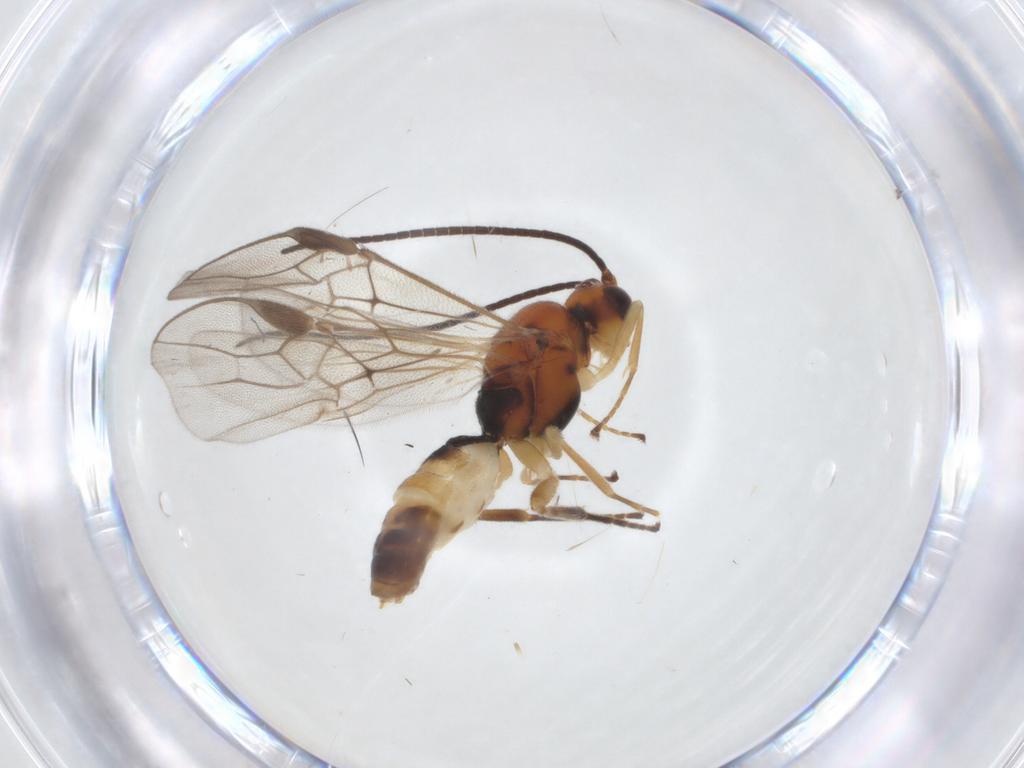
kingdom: Animalia
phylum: Arthropoda
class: Insecta
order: Hymenoptera
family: Braconidae
